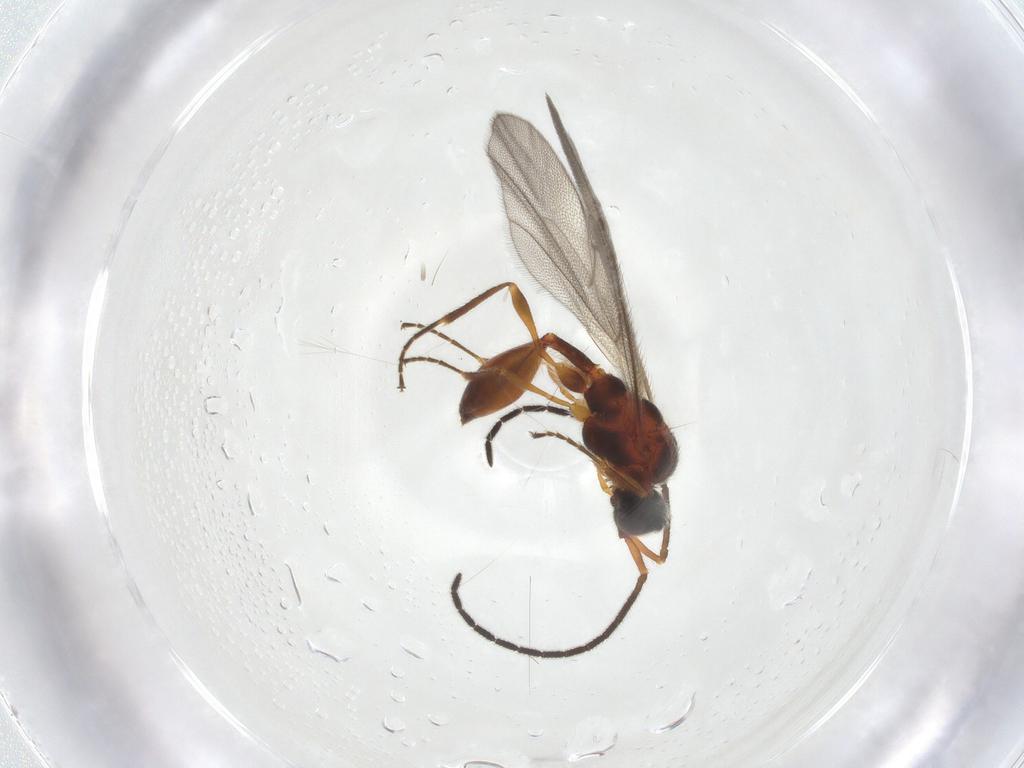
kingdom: Animalia
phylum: Arthropoda
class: Insecta
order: Hymenoptera
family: Diapriidae
